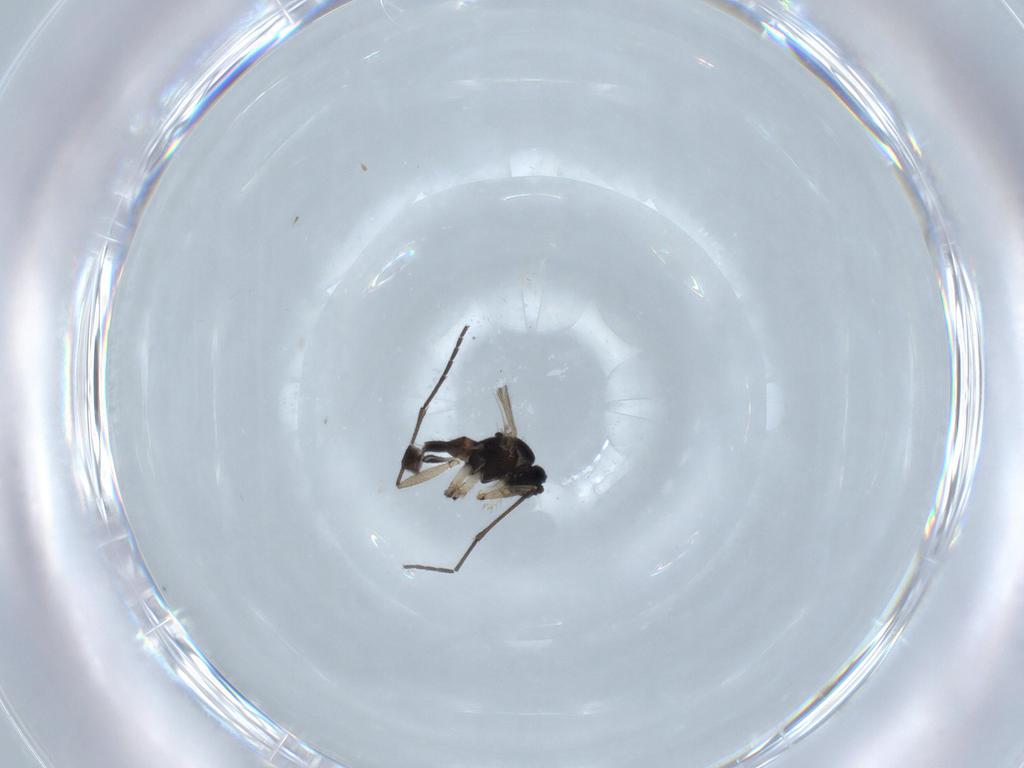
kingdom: Animalia
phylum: Arthropoda
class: Insecta
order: Diptera
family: Sciaridae
